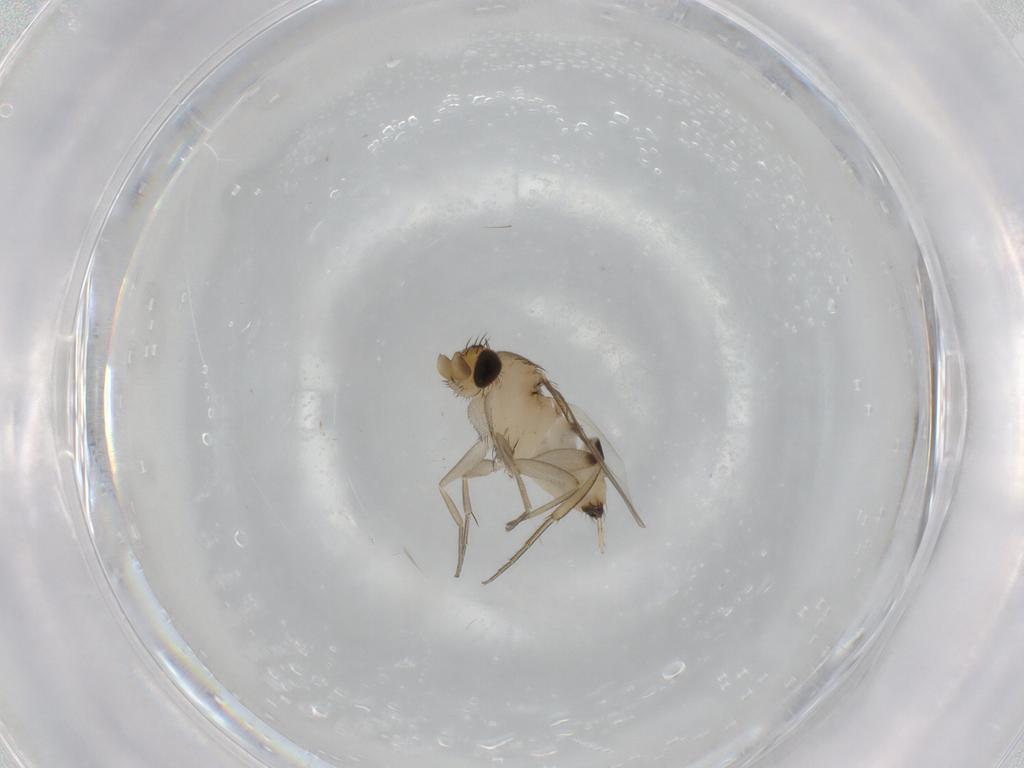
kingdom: Animalia
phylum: Arthropoda
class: Insecta
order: Diptera
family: Phoridae
